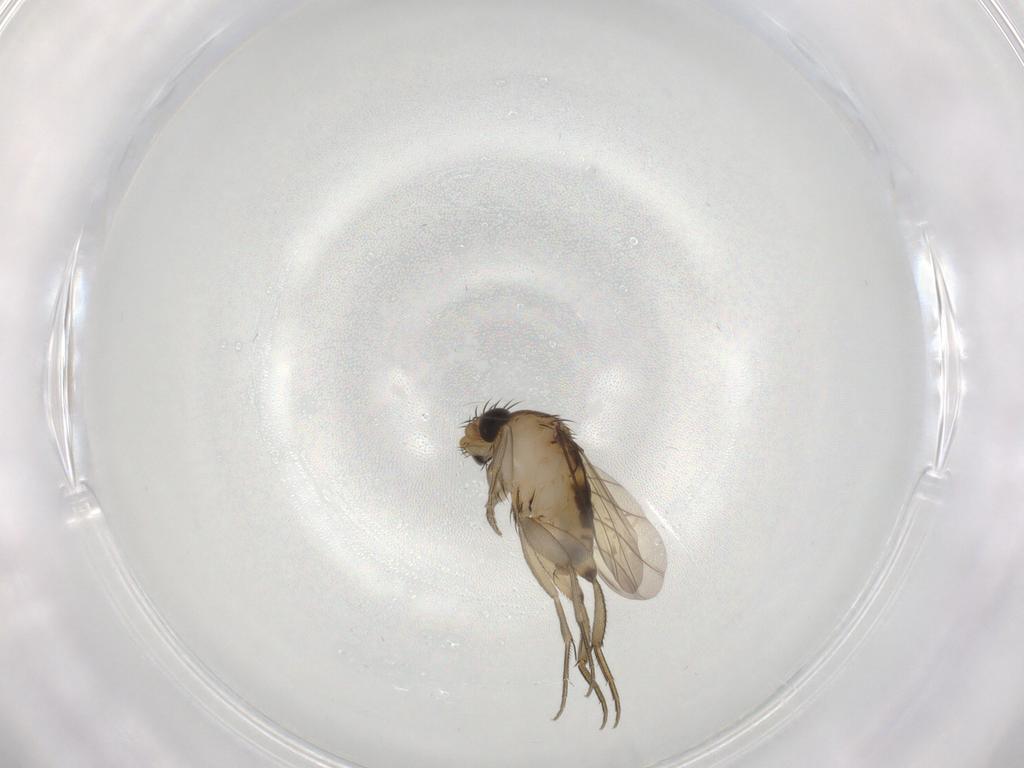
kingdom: Animalia
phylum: Arthropoda
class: Insecta
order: Diptera
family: Phoridae
